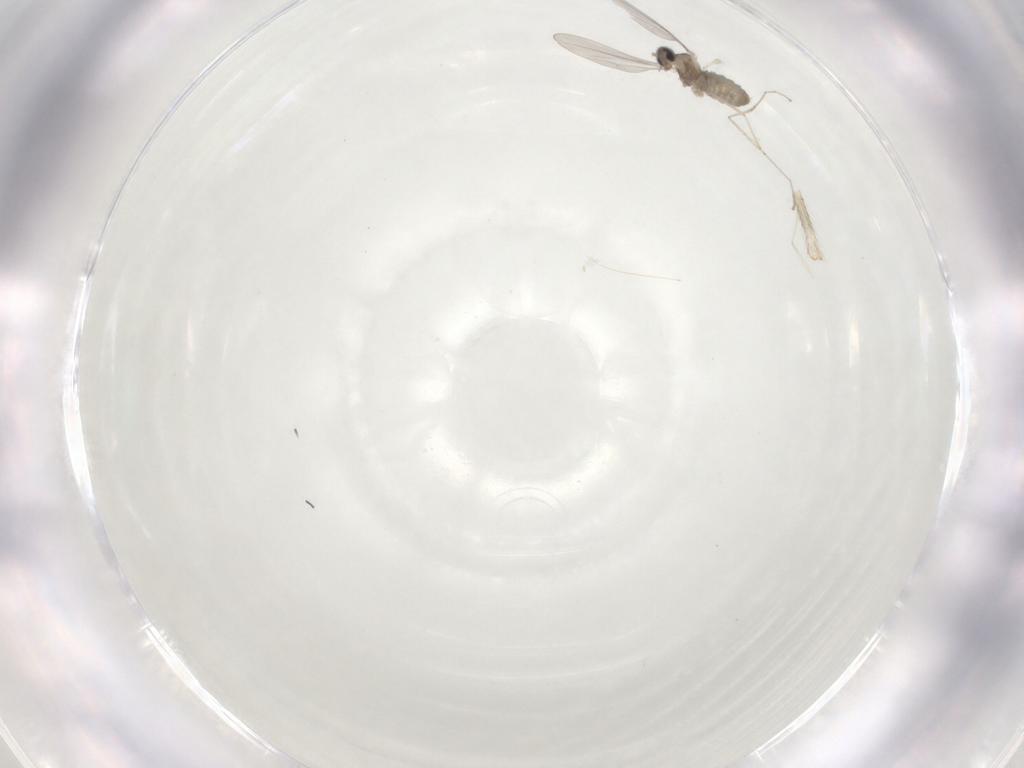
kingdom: Animalia
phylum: Arthropoda
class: Insecta
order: Diptera
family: Cecidomyiidae
